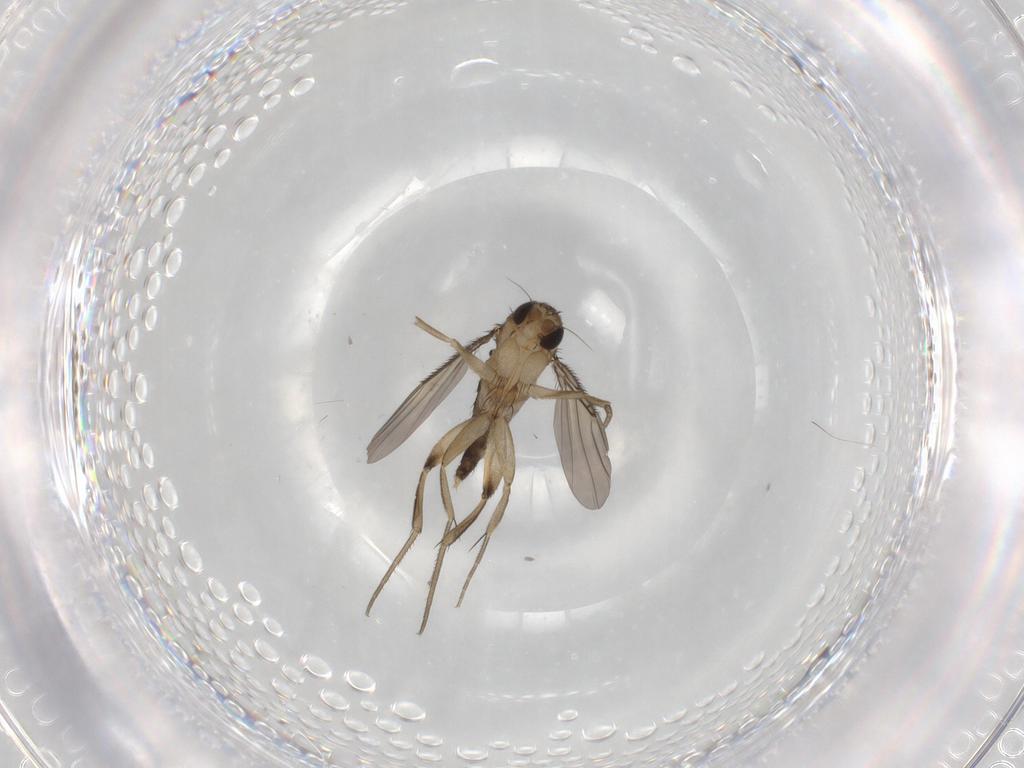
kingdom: Animalia
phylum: Arthropoda
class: Insecta
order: Diptera
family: Phoridae
